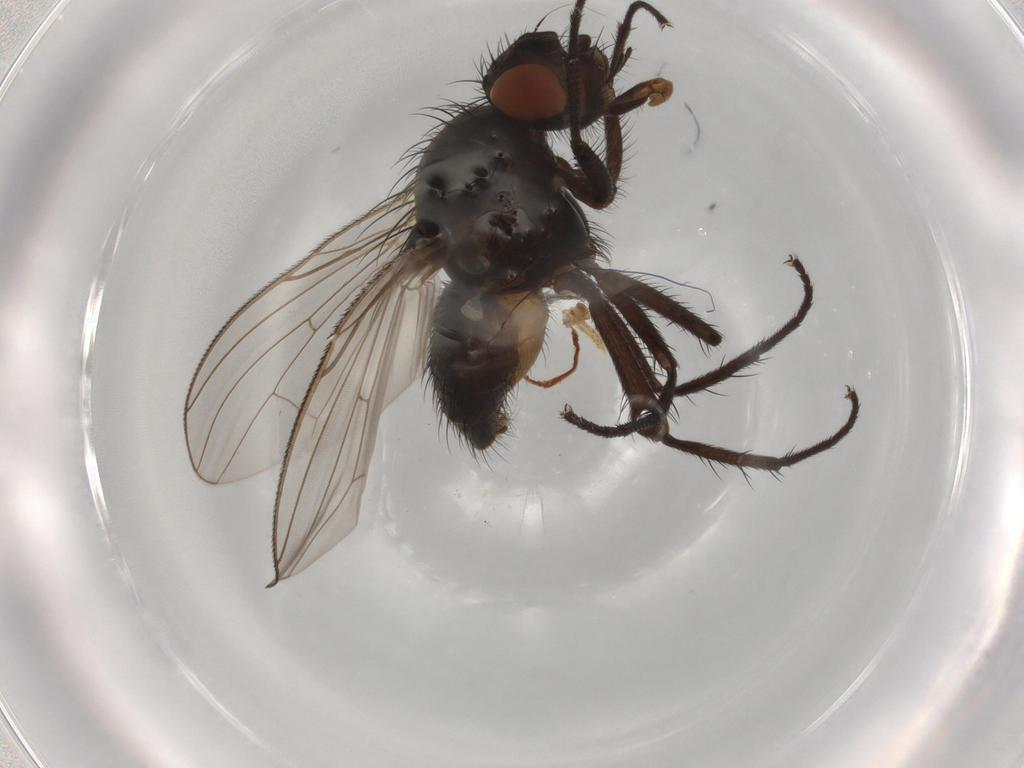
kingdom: Animalia
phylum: Arthropoda
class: Insecta
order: Diptera
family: Anthomyiidae
